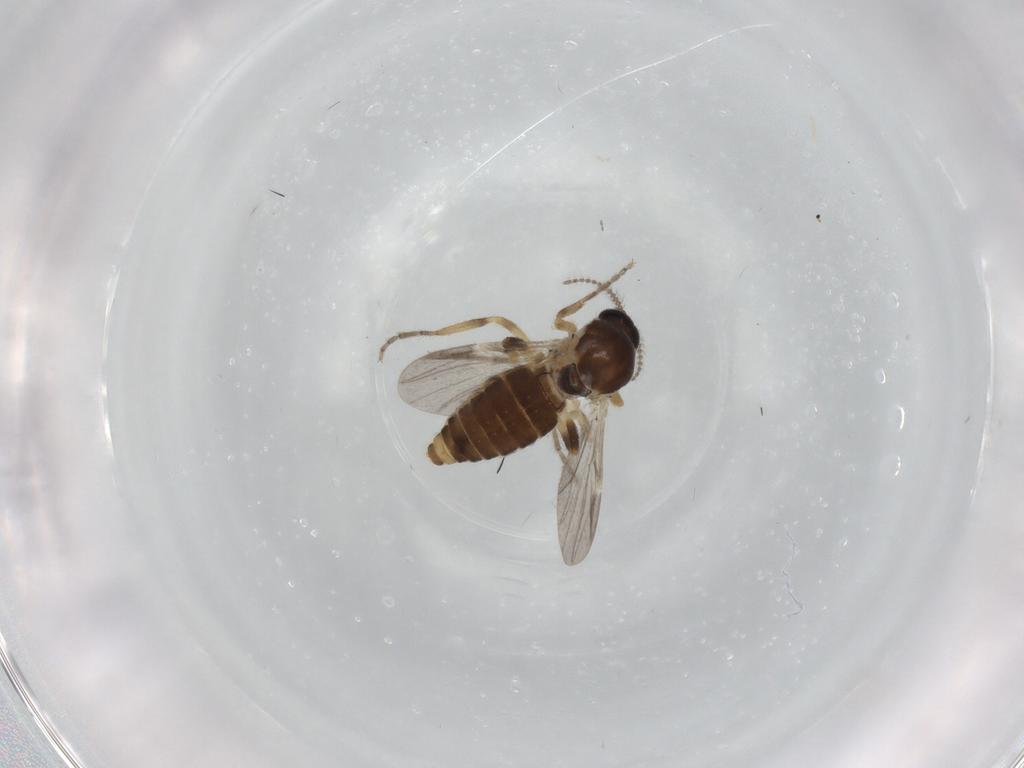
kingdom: Animalia
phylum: Arthropoda
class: Insecta
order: Diptera
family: Ceratopogonidae
